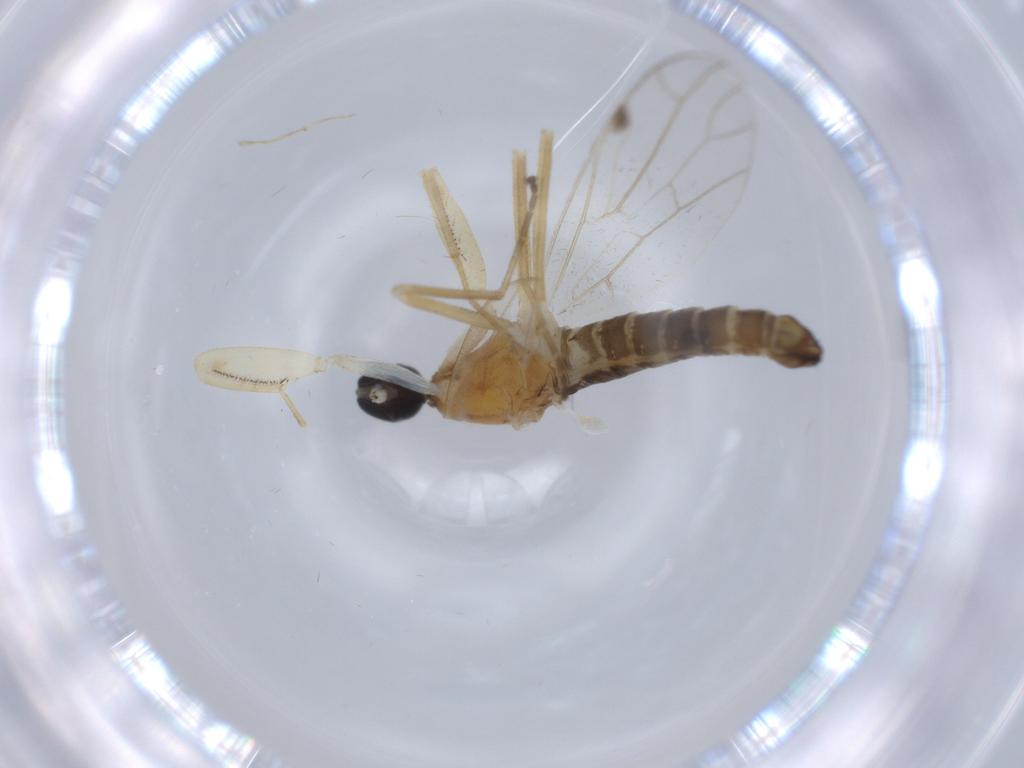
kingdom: Animalia
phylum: Arthropoda
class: Insecta
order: Diptera
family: Empididae
